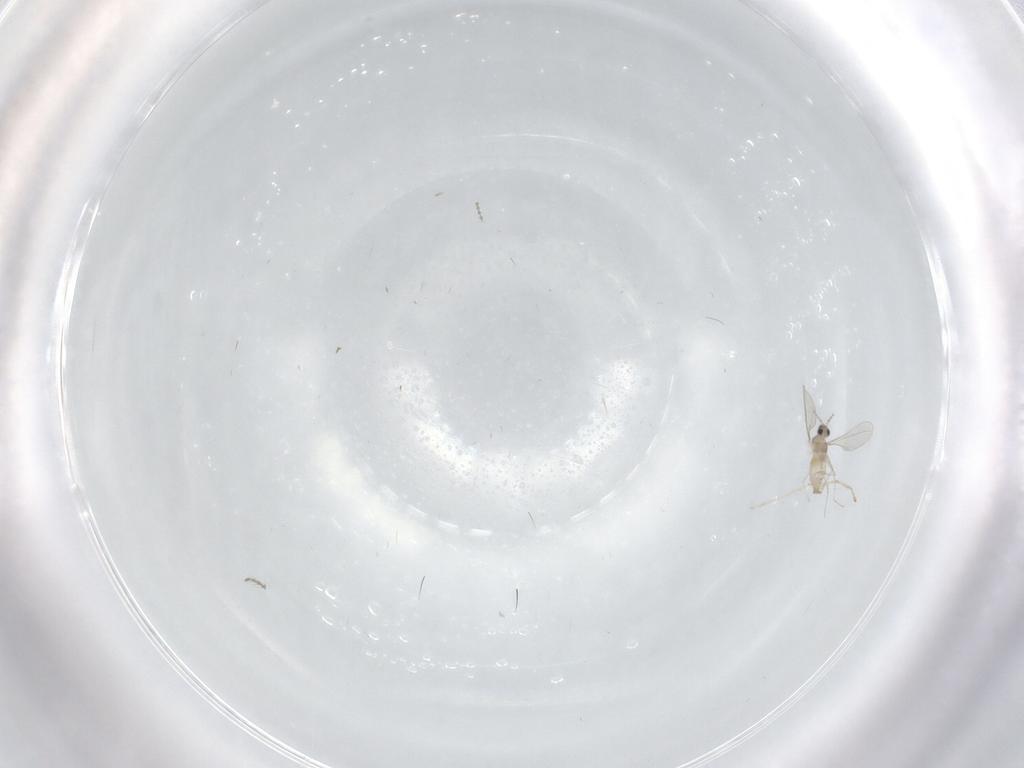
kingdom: Animalia
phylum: Arthropoda
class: Insecta
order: Diptera
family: Cecidomyiidae
